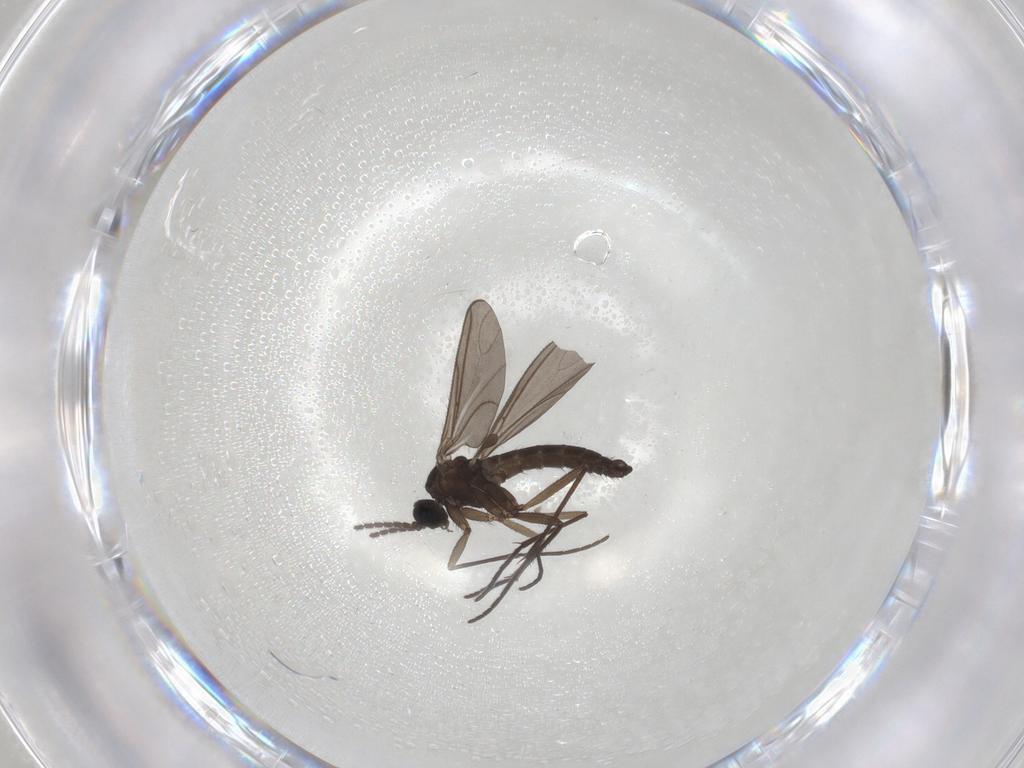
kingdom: Animalia
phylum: Arthropoda
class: Insecta
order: Diptera
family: Sciaridae
